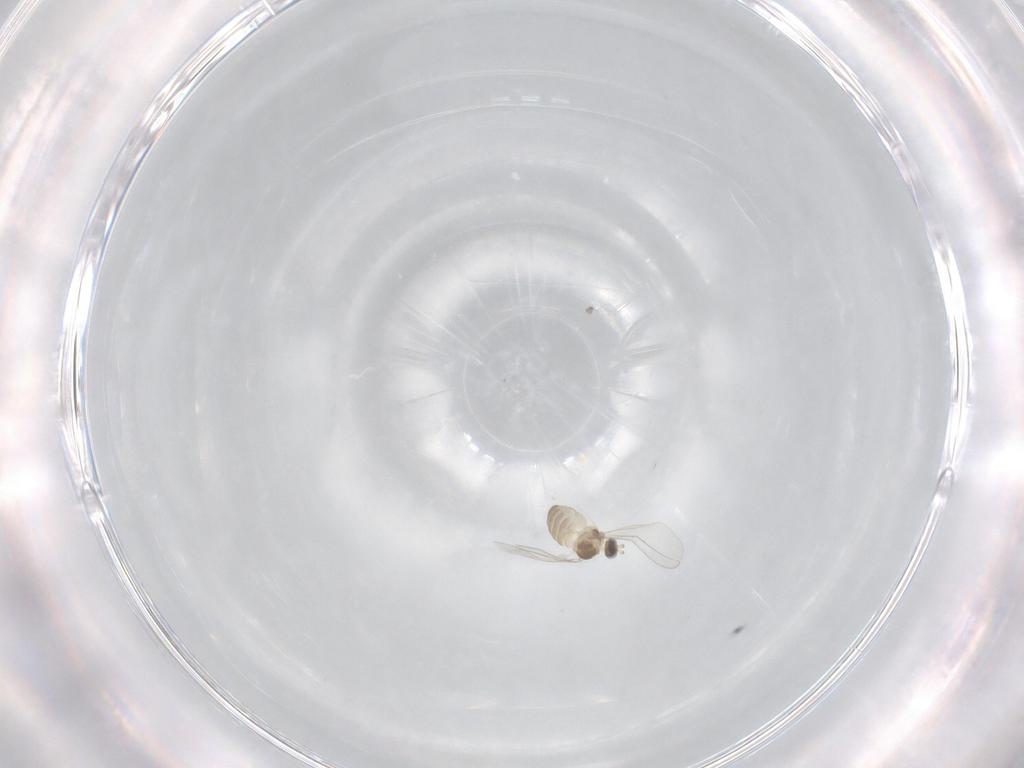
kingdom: Animalia
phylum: Arthropoda
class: Insecta
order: Diptera
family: Cecidomyiidae
